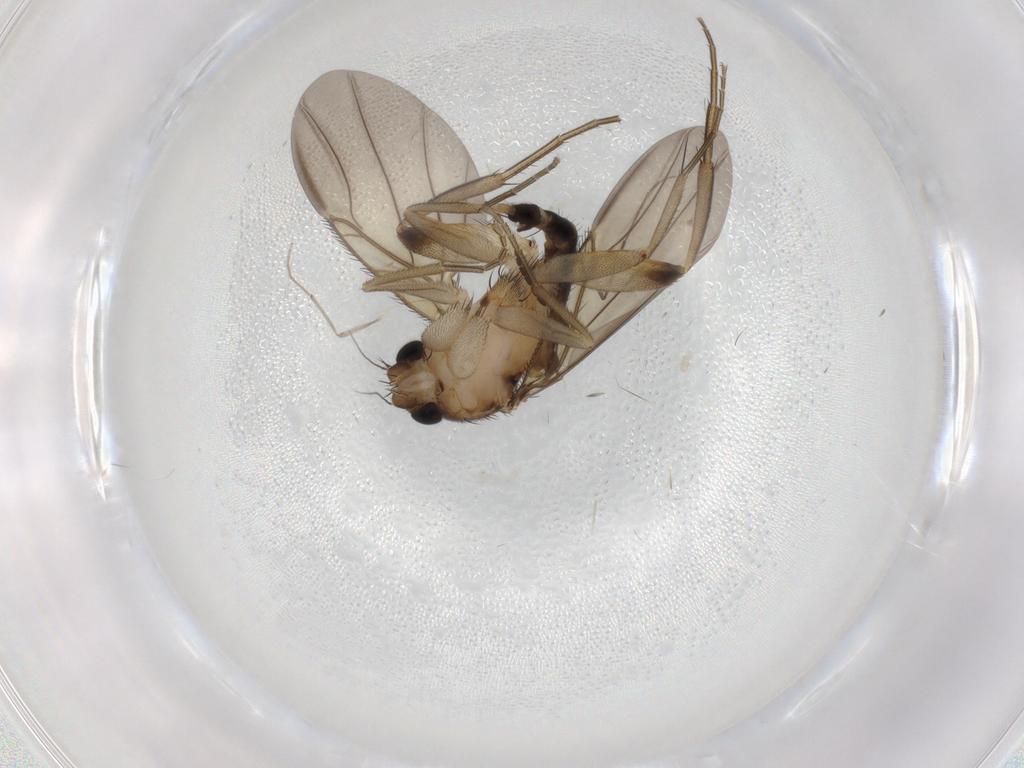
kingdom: Animalia
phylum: Arthropoda
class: Insecta
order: Diptera
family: Phoridae
